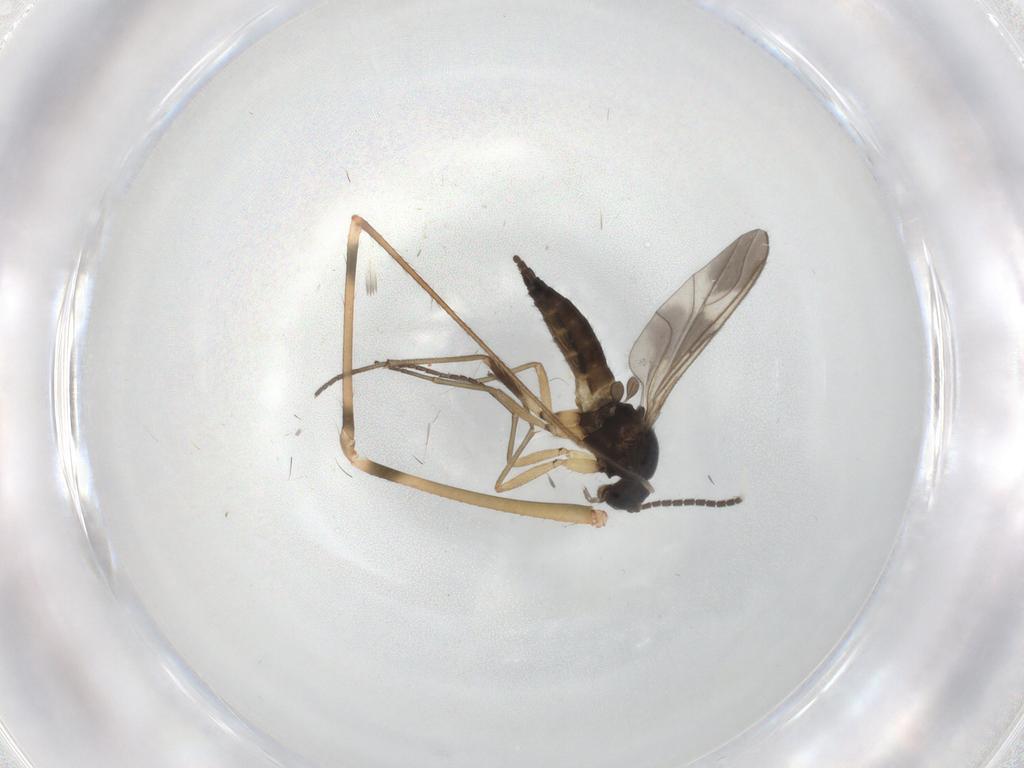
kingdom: Animalia
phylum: Arthropoda
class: Insecta
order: Diptera
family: Sciaridae
